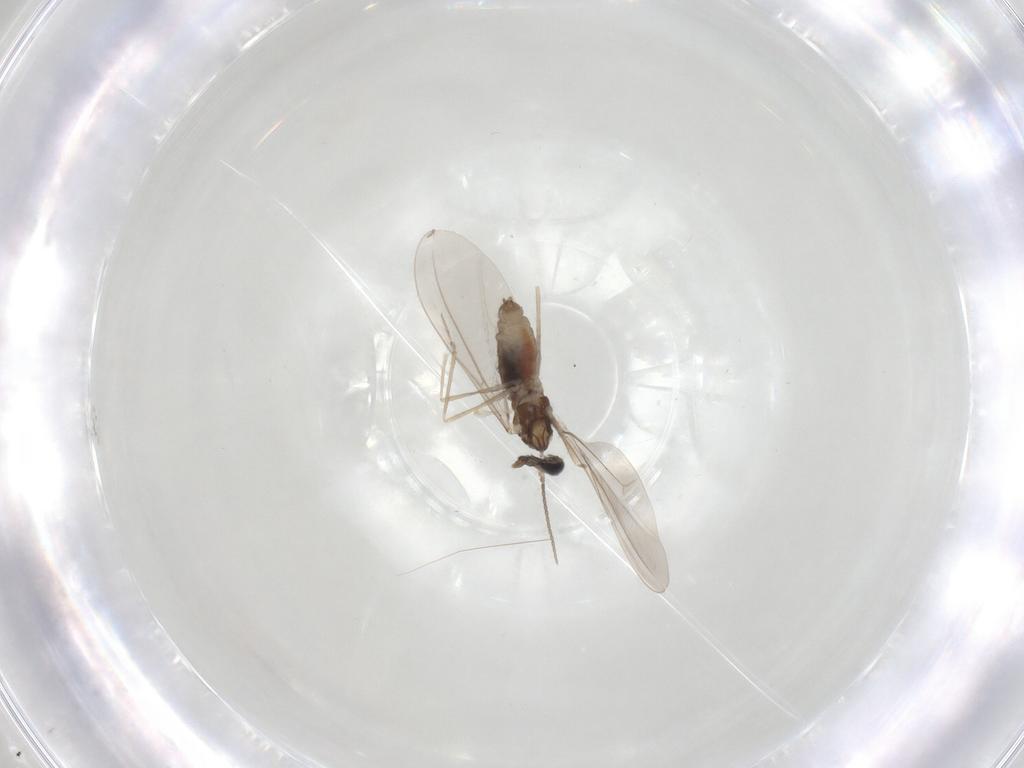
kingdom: Animalia
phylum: Arthropoda
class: Insecta
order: Diptera
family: Cecidomyiidae
